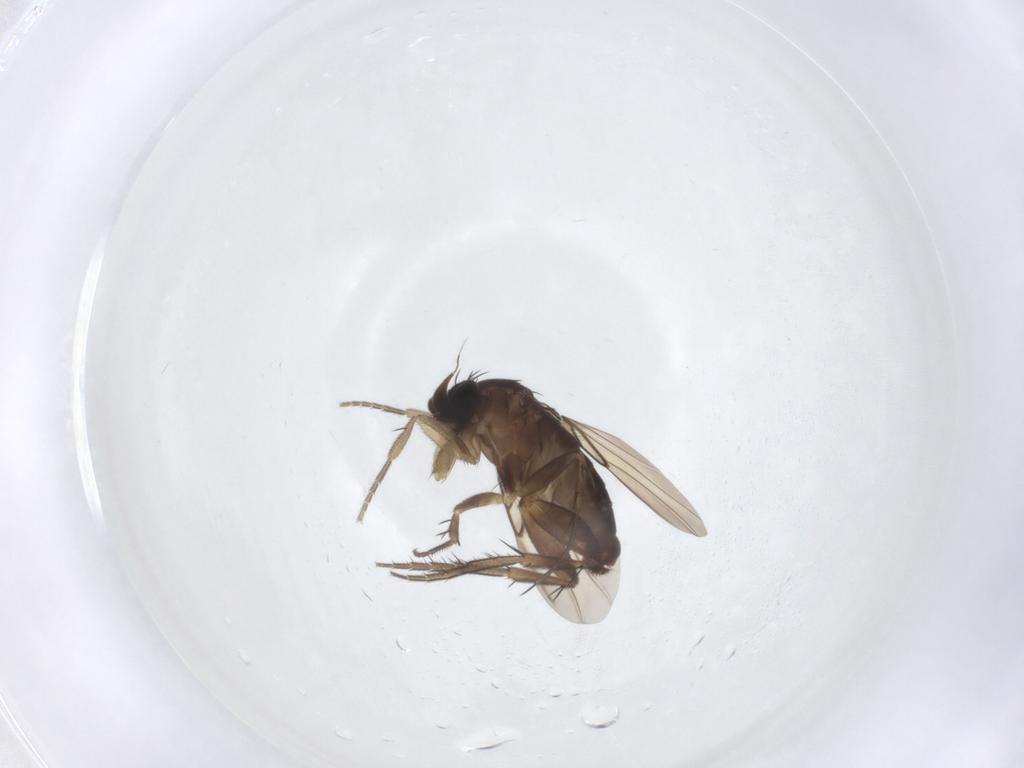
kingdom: Animalia
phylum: Arthropoda
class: Insecta
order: Diptera
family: Phoridae
